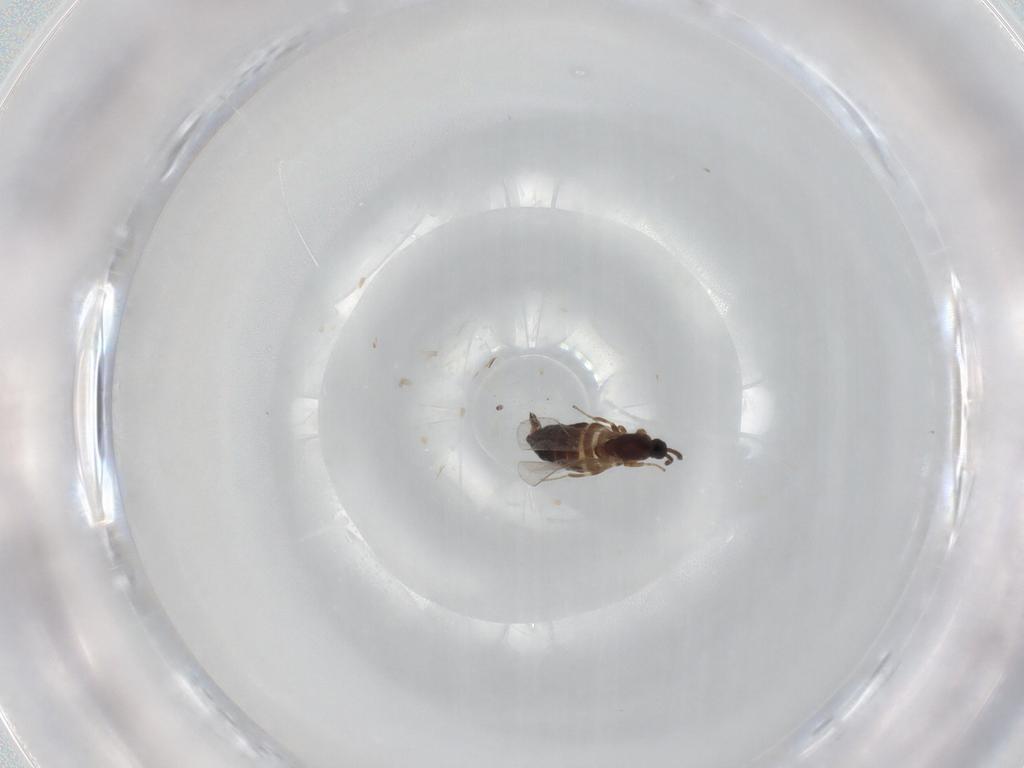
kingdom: Animalia
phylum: Arthropoda
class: Insecta
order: Diptera
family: Scatopsidae
